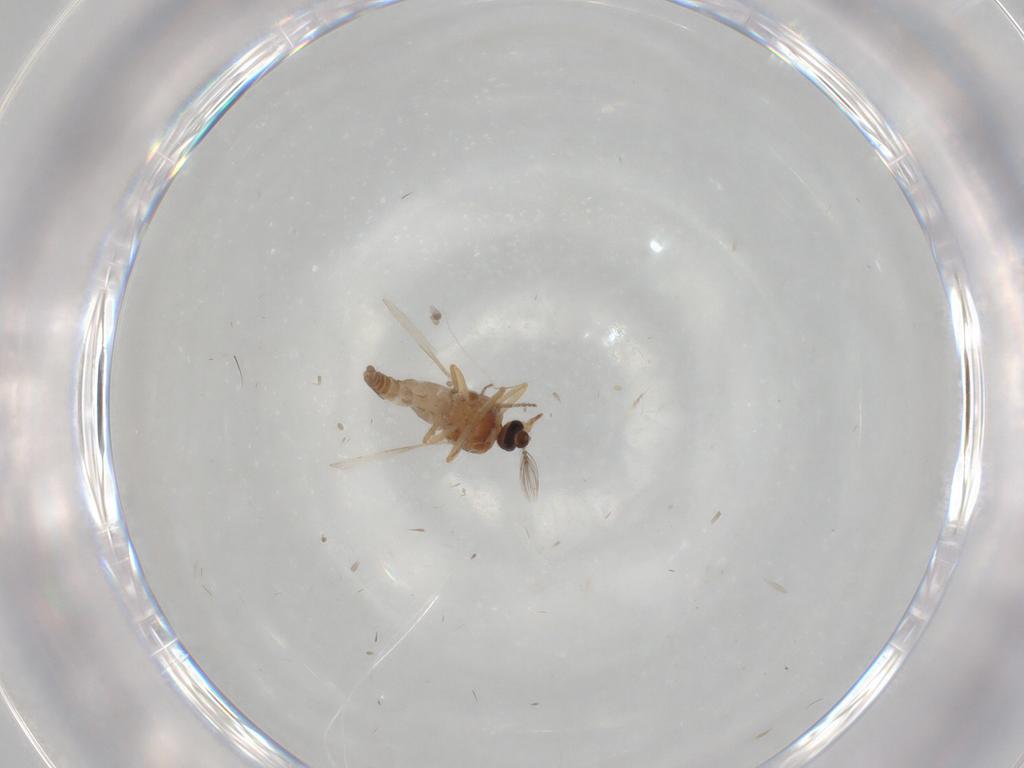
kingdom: Animalia
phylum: Arthropoda
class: Insecta
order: Diptera
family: Ceratopogonidae
